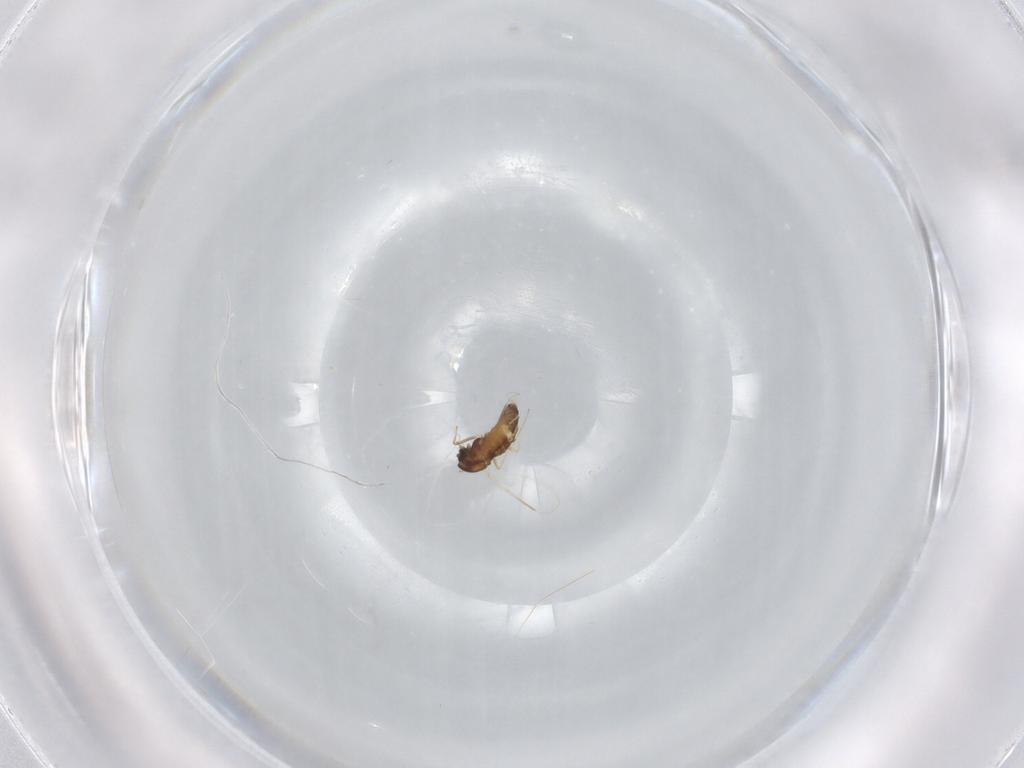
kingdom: Animalia
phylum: Arthropoda
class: Insecta
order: Diptera
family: Chironomidae
